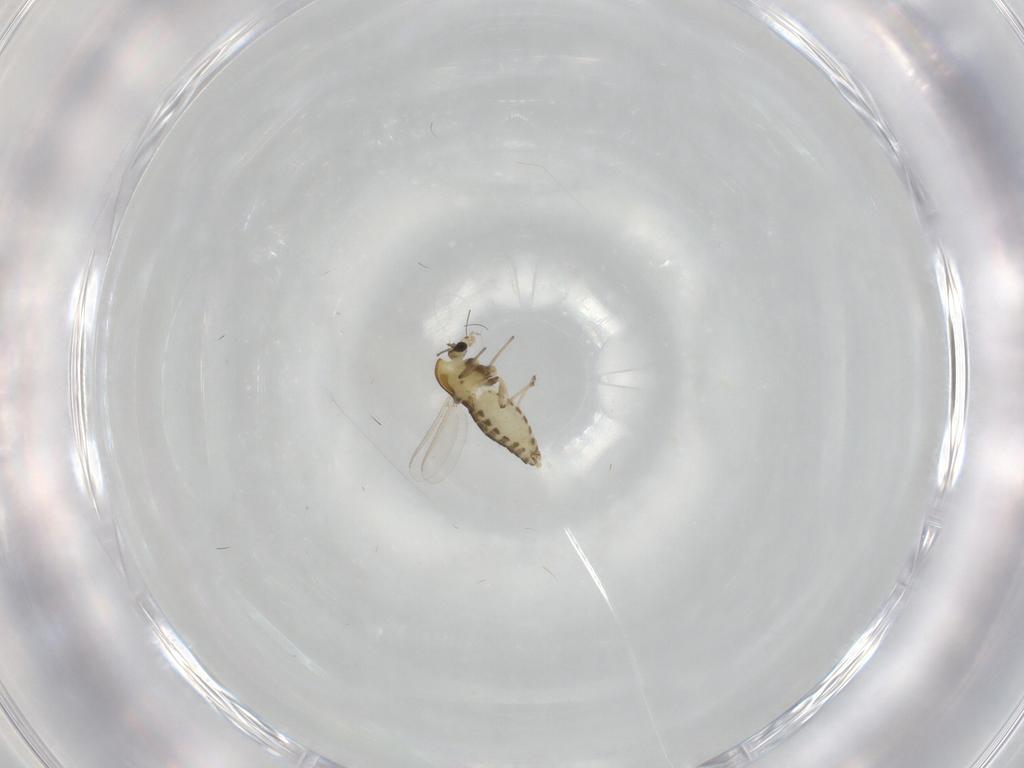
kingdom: Animalia
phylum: Arthropoda
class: Insecta
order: Diptera
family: Chironomidae
